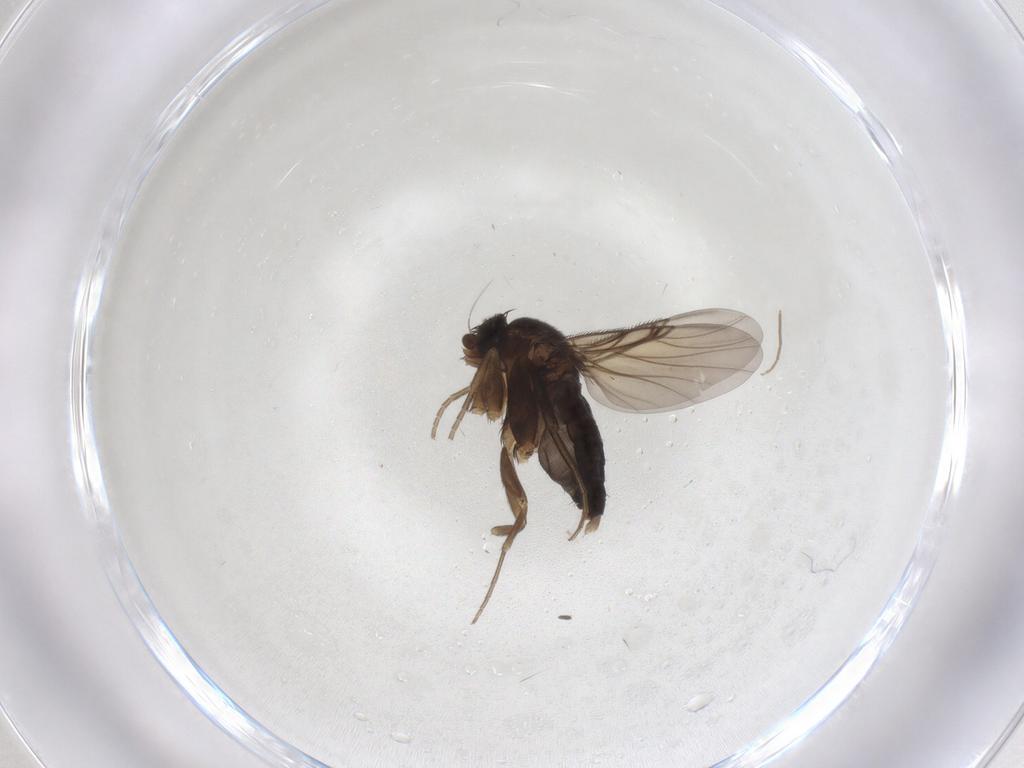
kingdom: Animalia
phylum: Arthropoda
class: Insecta
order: Diptera
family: Phoridae
